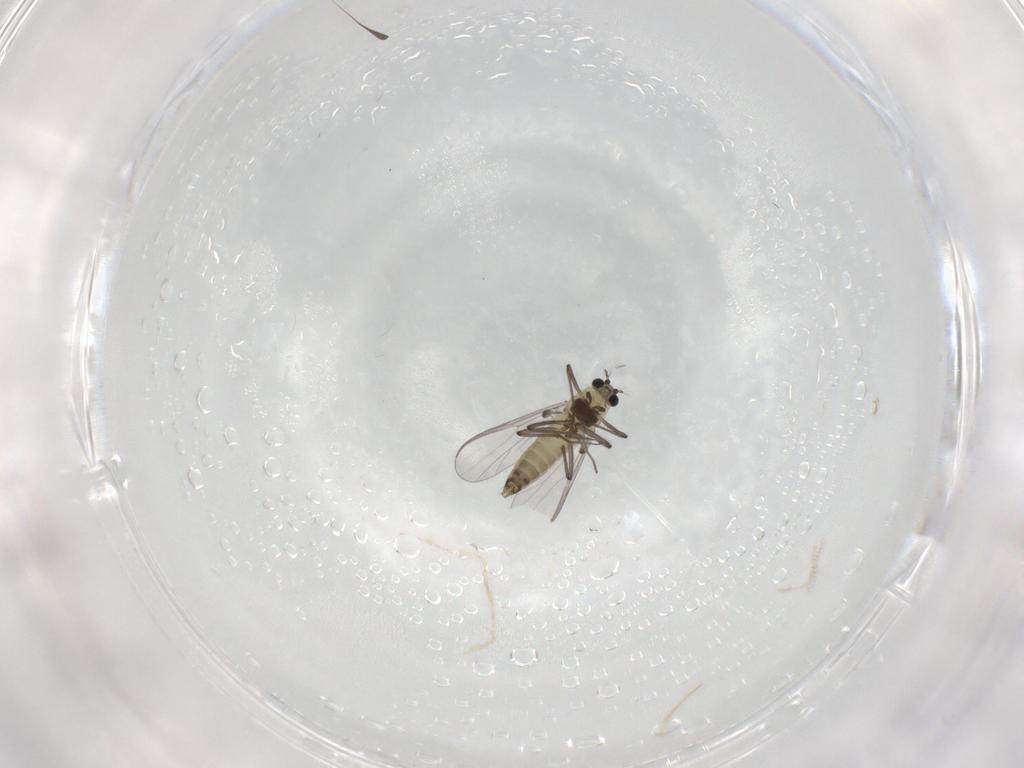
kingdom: Animalia
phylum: Arthropoda
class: Insecta
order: Diptera
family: Chironomidae
